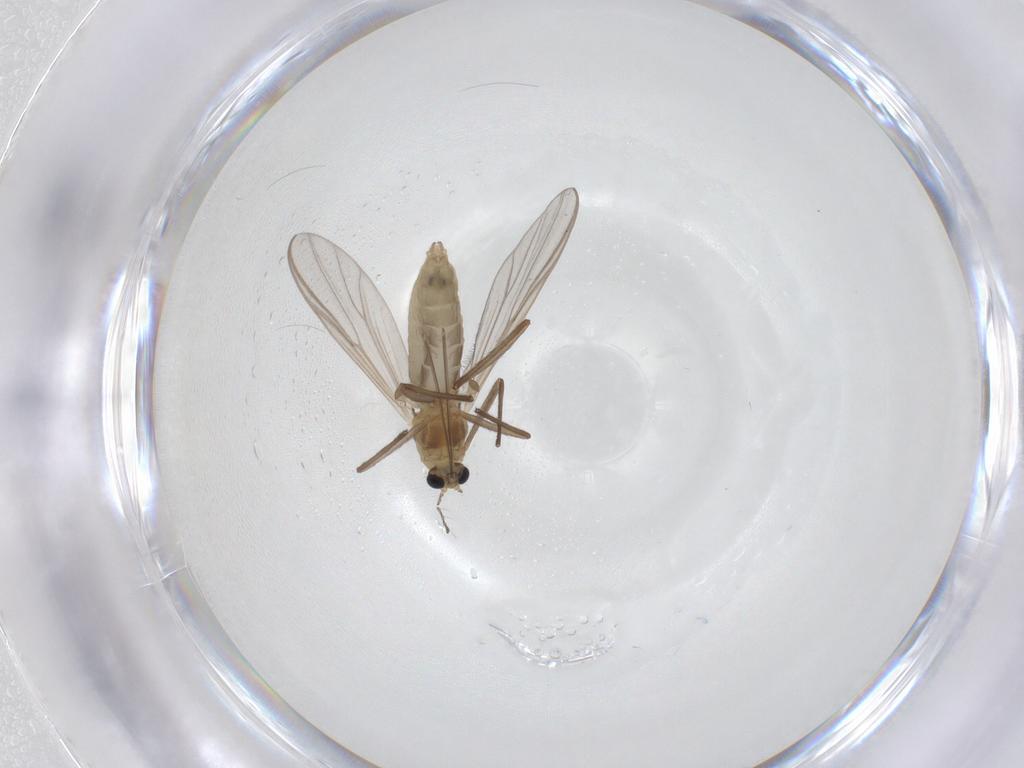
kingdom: Animalia
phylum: Arthropoda
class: Insecta
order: Diptera
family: Chironomidae
